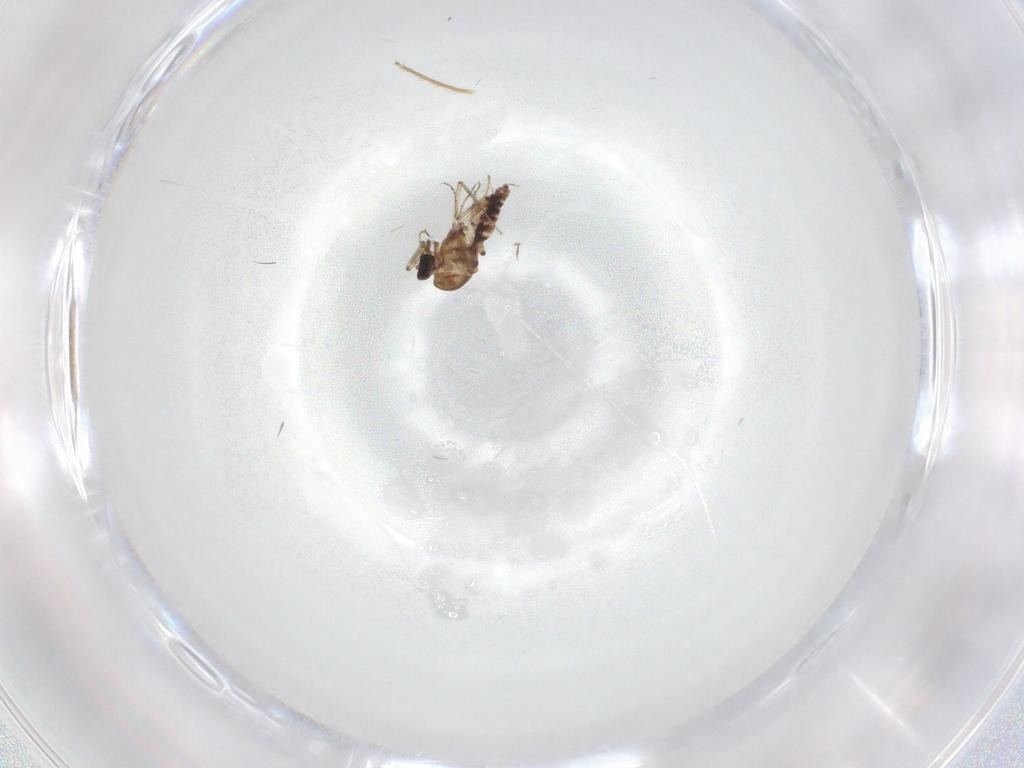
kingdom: Animalia
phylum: Arthropoda
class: Insecta
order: Diptera
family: Ceratopogonidae
